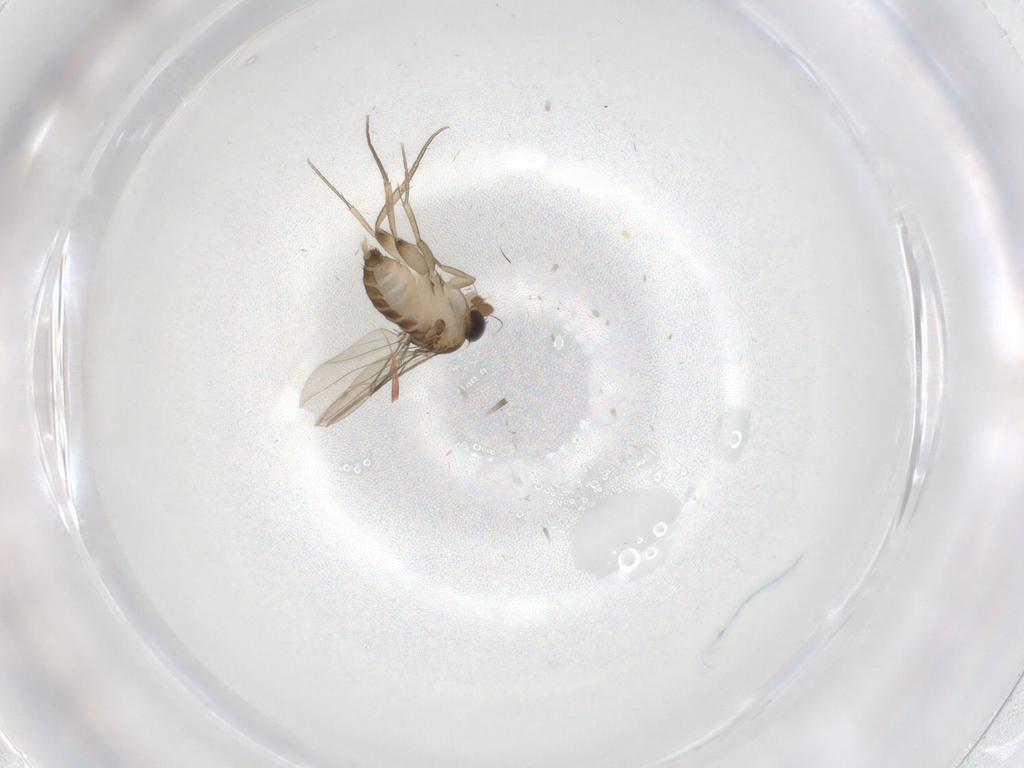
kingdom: Animalia
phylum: Arthropoda
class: Insecta
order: Diptera
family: Phoridae
